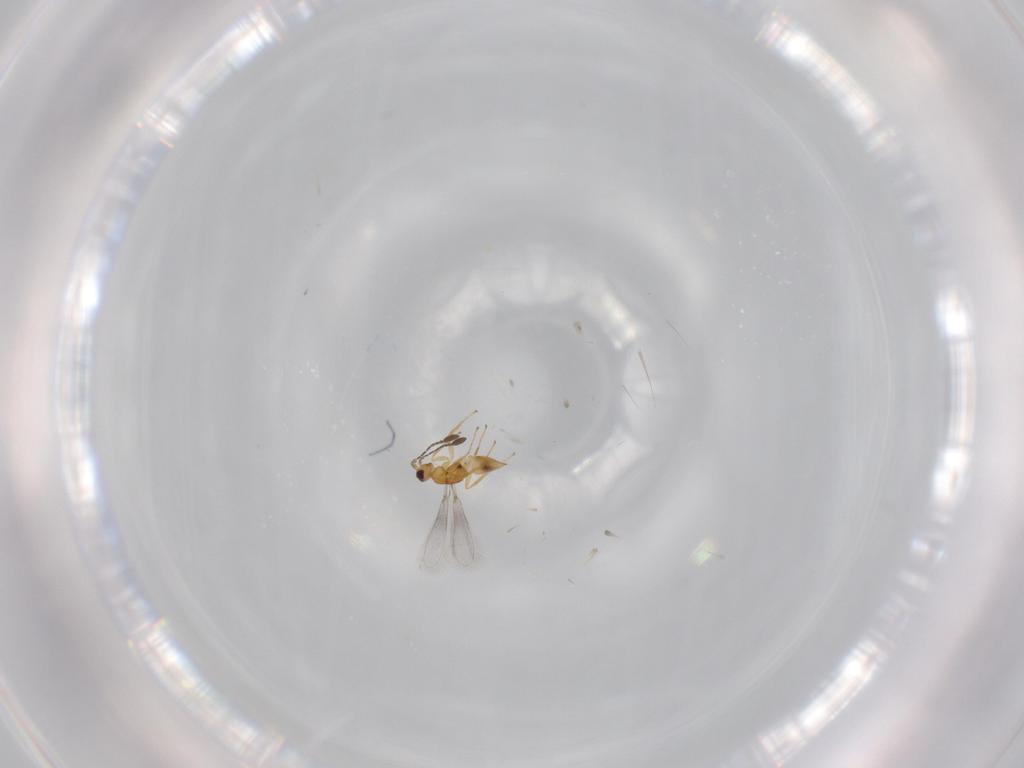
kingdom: Animalia
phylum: Arthropoda
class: Insecta
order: Hymenoptera
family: Mymaridae
